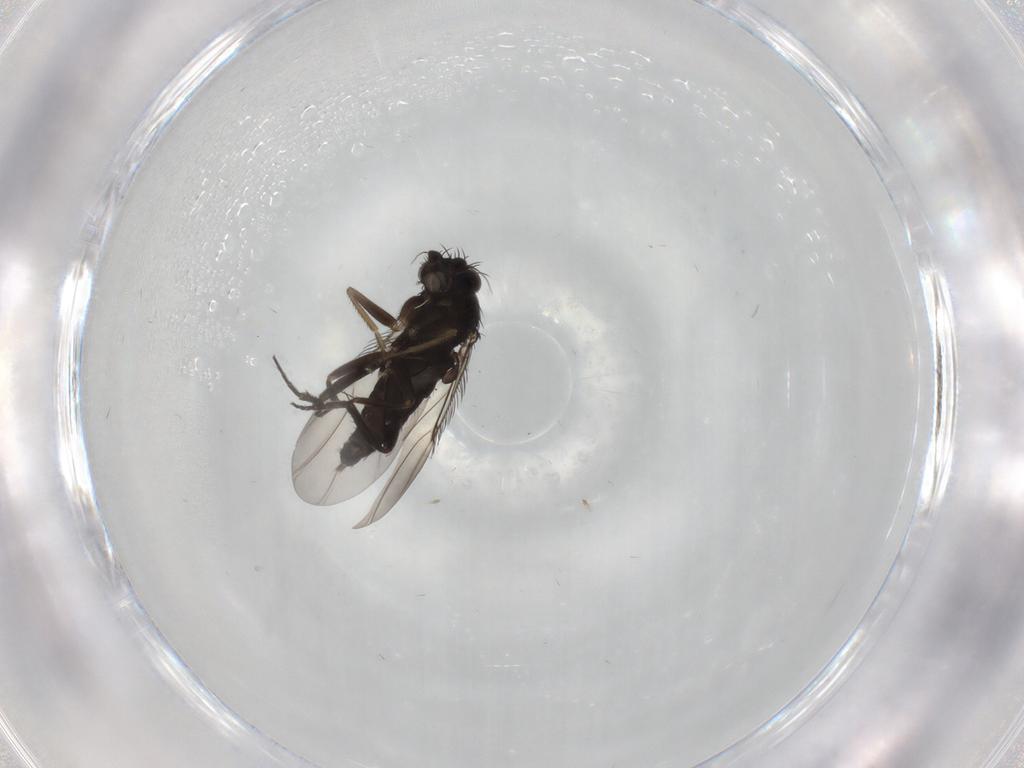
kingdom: Animalia
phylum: Arthropoda
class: Insecta
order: Diptera
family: Phoridae
